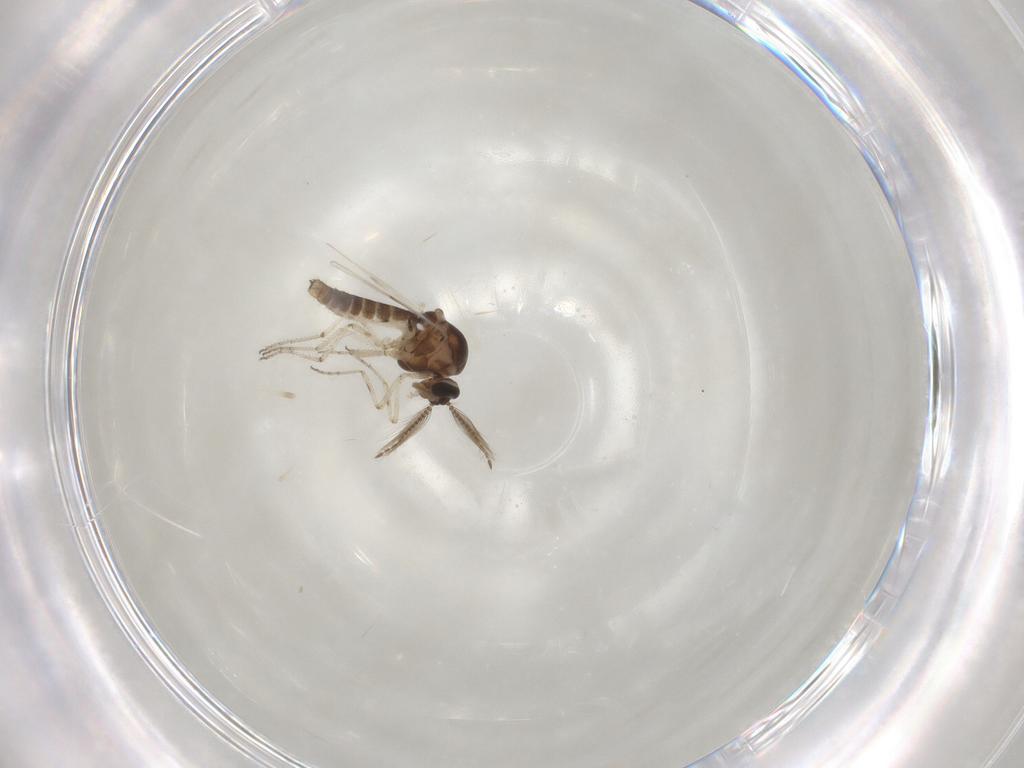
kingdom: Animalia
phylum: Arthropoda
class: Insecta
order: Diptera
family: Ceratopogonidae
